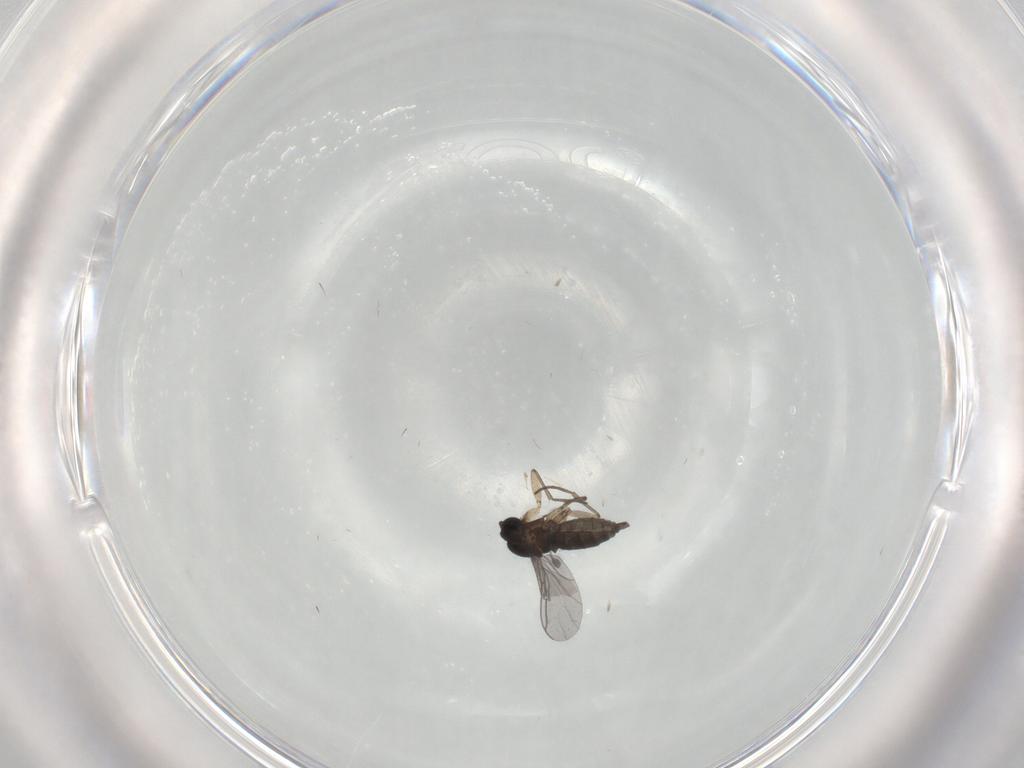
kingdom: Animalia
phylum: Arthropoda
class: Insecta
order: Diptera
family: Sciaridae
